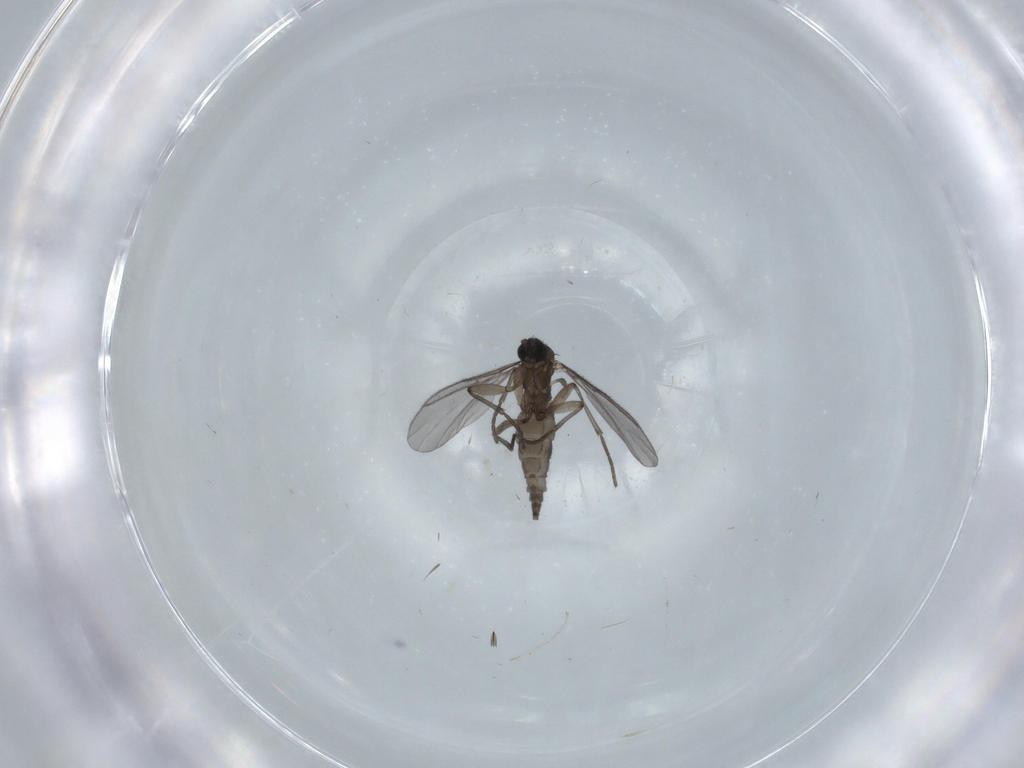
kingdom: Animalia
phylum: Arthropoda
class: Insecta
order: Diptera
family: Cecidomyiidae
